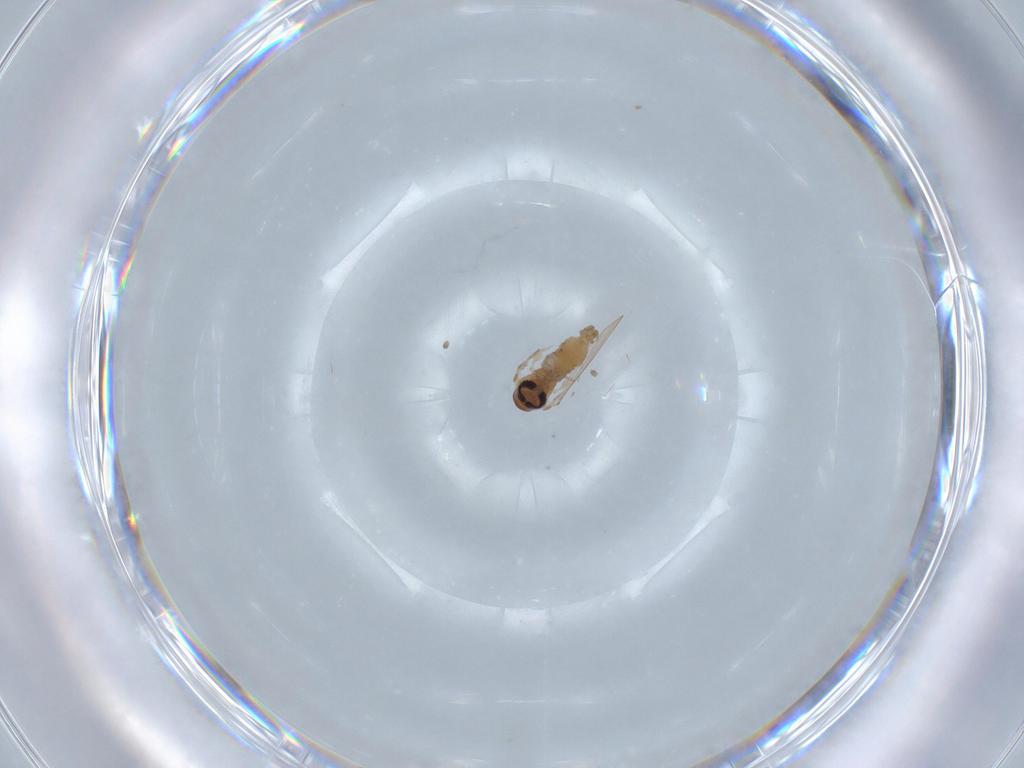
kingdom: Animalia
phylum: Arthropoda
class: Insecta
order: Diptera
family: Psychodidae
